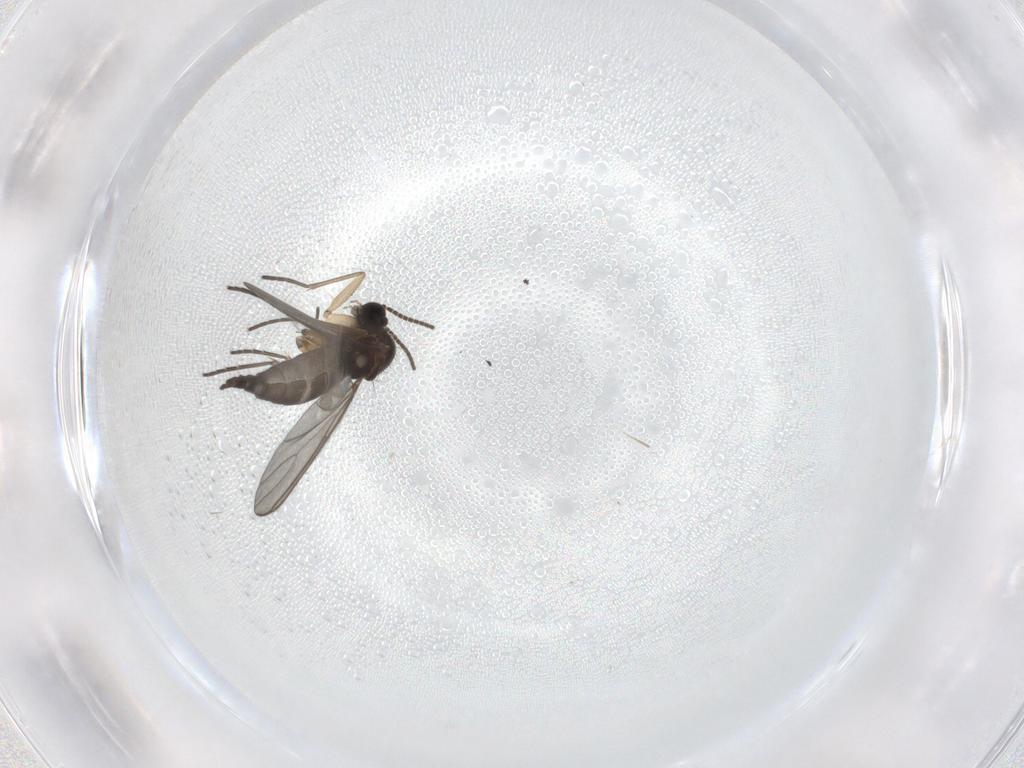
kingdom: Animalia
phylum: Arthropoda
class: Insecta
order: Diptera
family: Sciaridae
